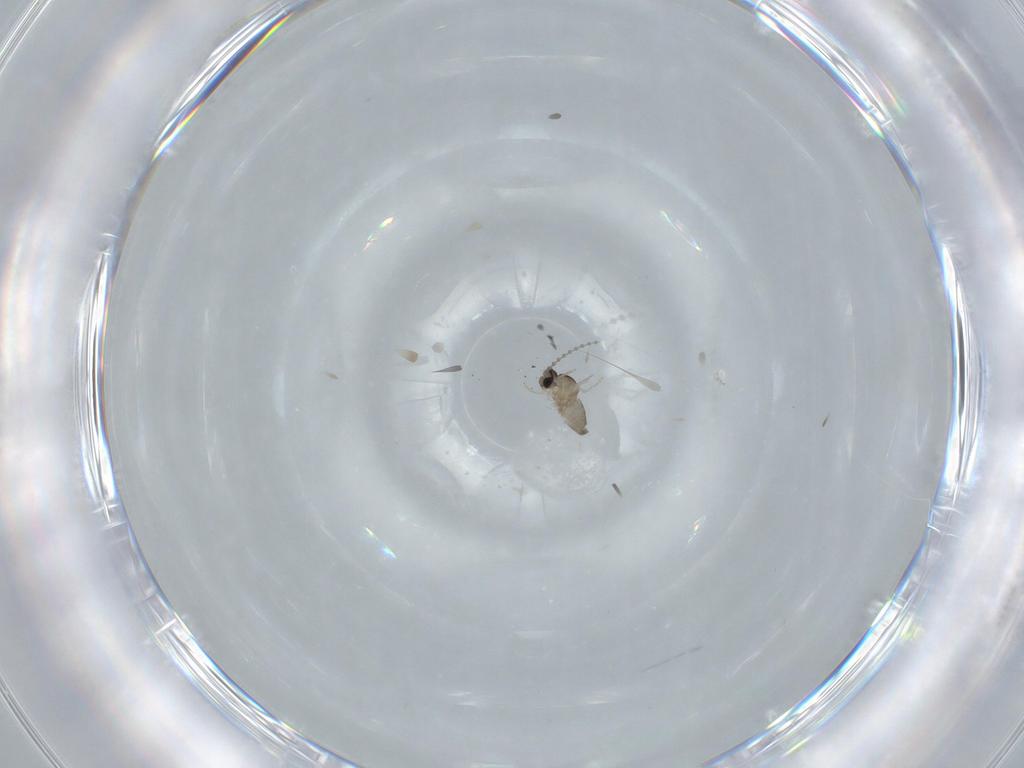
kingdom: Animalia
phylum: Arthropoda
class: Insecta
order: Diptera
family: Cecidomyiidae
